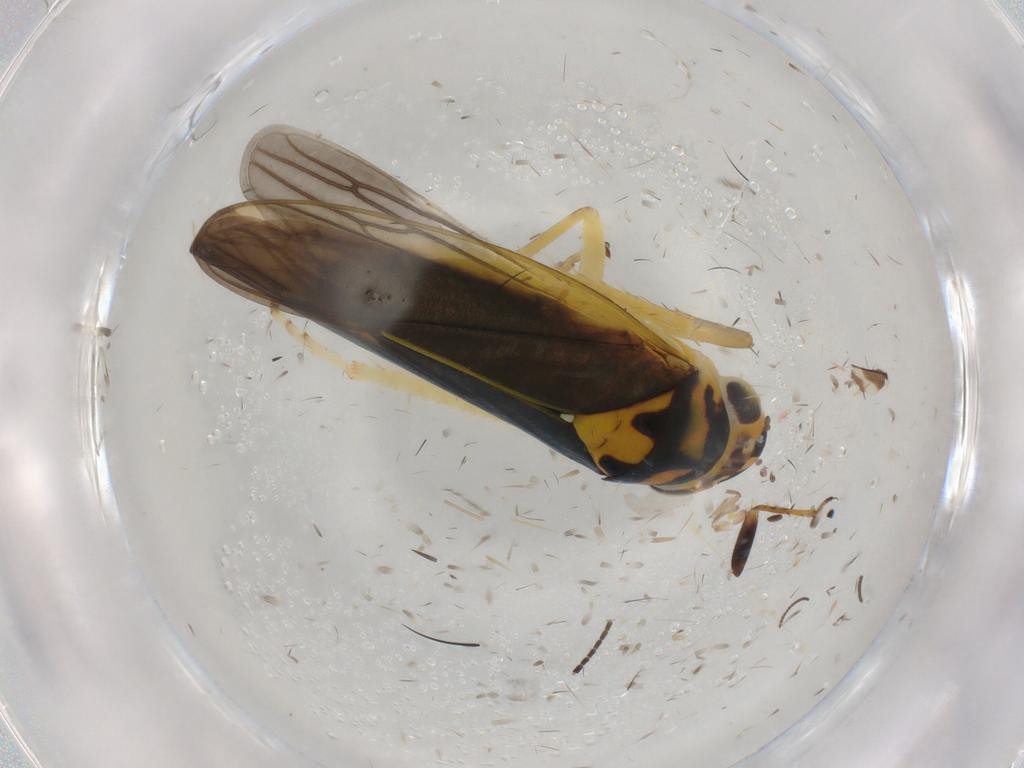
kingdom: Animalia
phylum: Arthropoda
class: Insecta
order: Hemiptera
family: Cicadellidae
